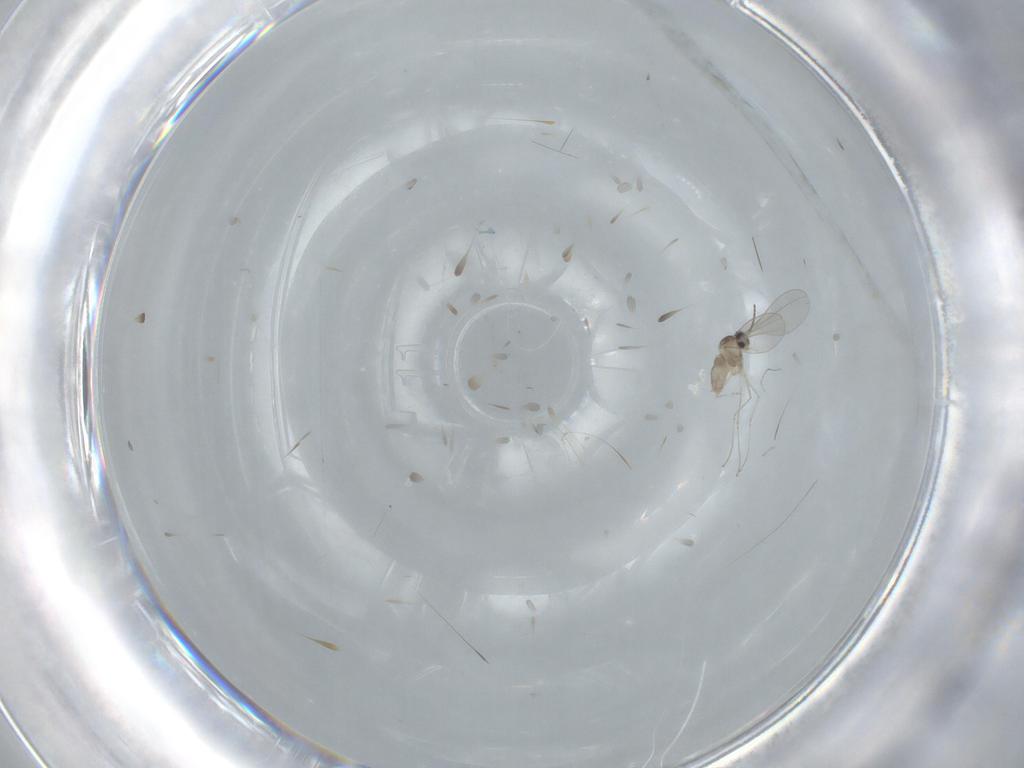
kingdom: Animalia
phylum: Arthropoda
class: Insecta
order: Diptera
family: Cecidomyiidae
